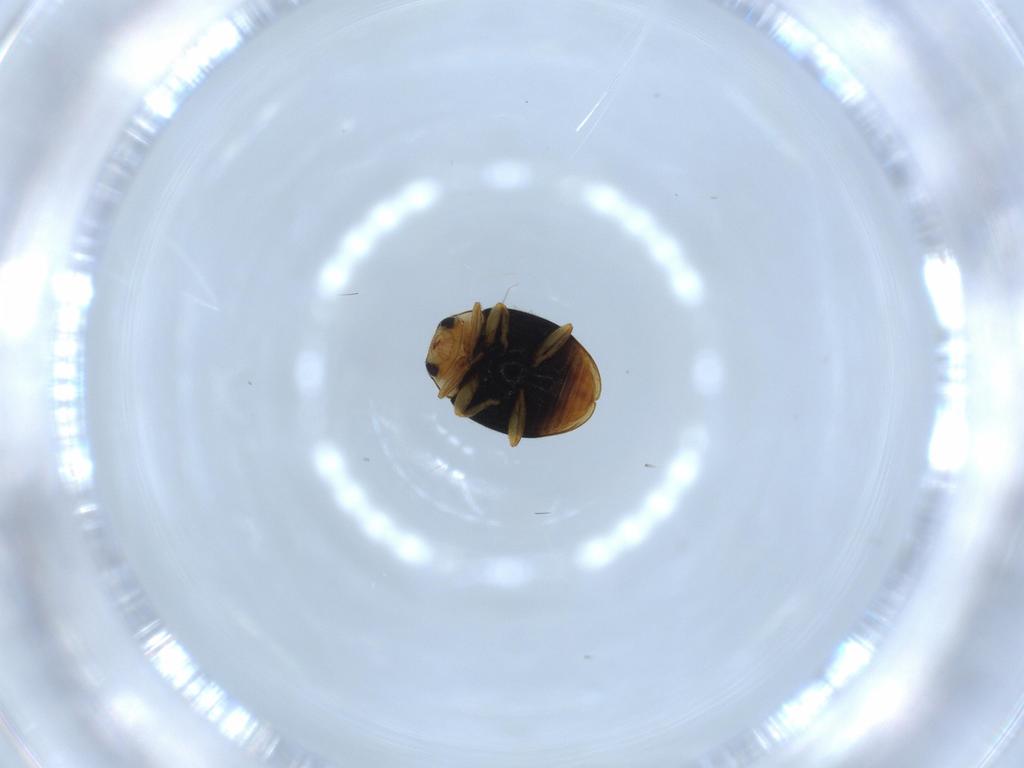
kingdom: Animalia
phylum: Arthropoda
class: Insecta
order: Coleoptera
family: Coccinellidae
